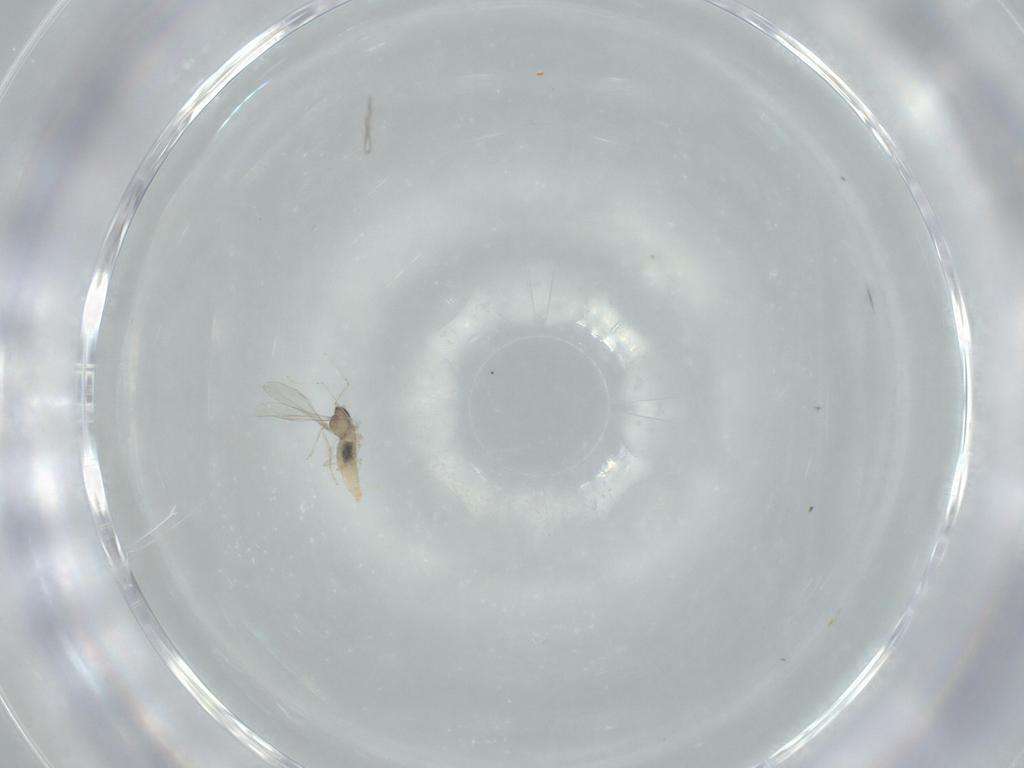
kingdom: Animalia
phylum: Arthropoda
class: Insecta
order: Diptera
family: Cecidomyiidae
